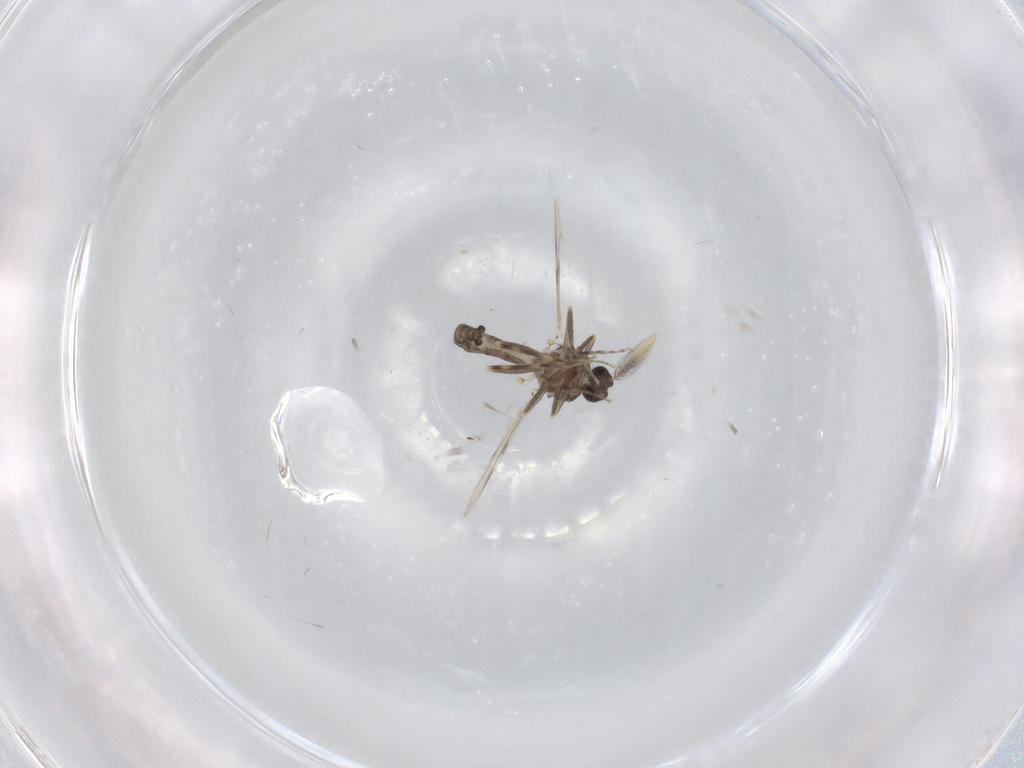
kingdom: Animalia
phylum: Arthropoda
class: Insecta
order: Diptera
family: Ceratopogonidae
